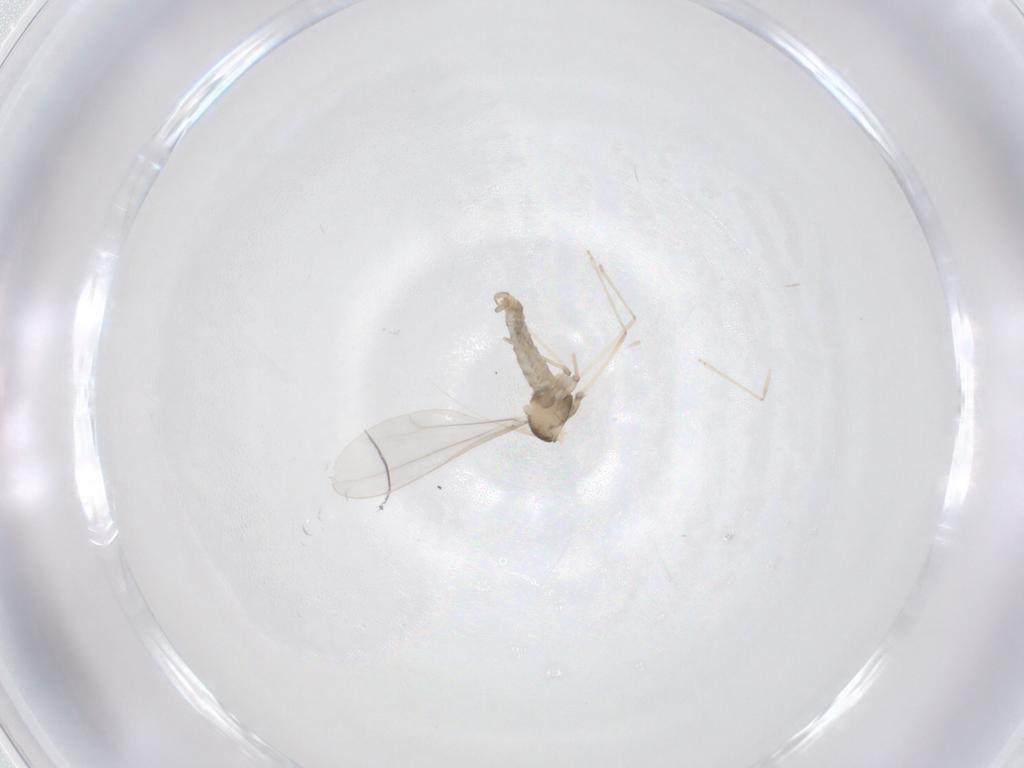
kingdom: Animalia
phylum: Arthropoda
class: Insecta
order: Diptera
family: Cecidomyiidae
